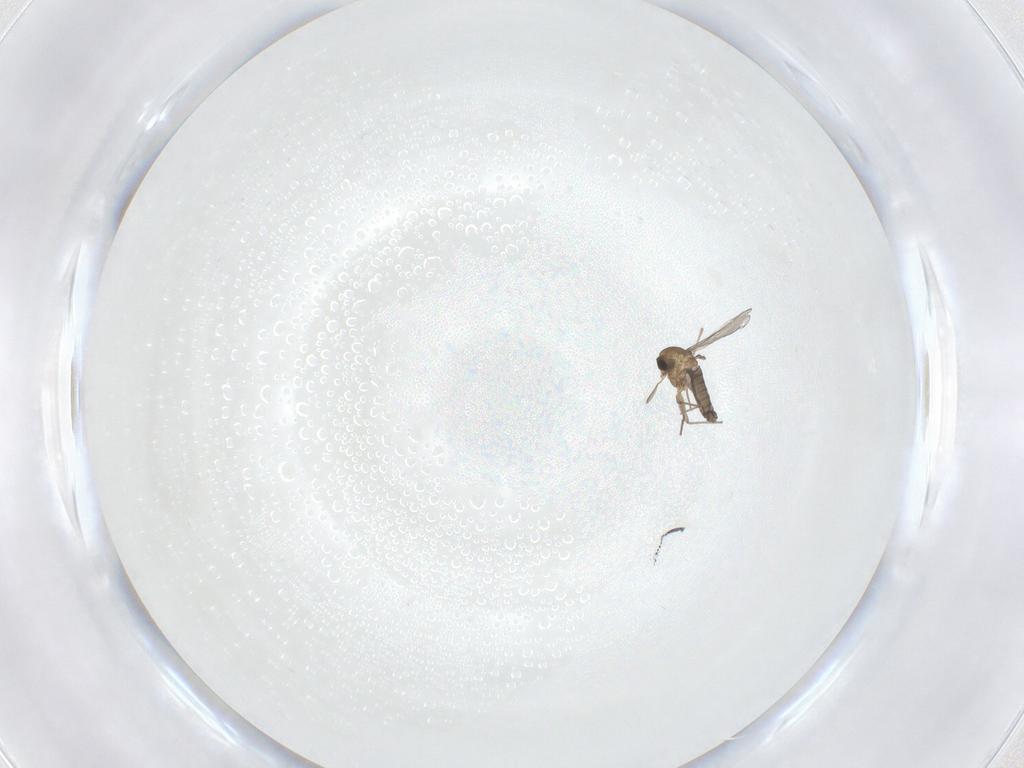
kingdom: Animalia
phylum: Arthropoda
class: Insecta
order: Diptera
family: Chironomidae
